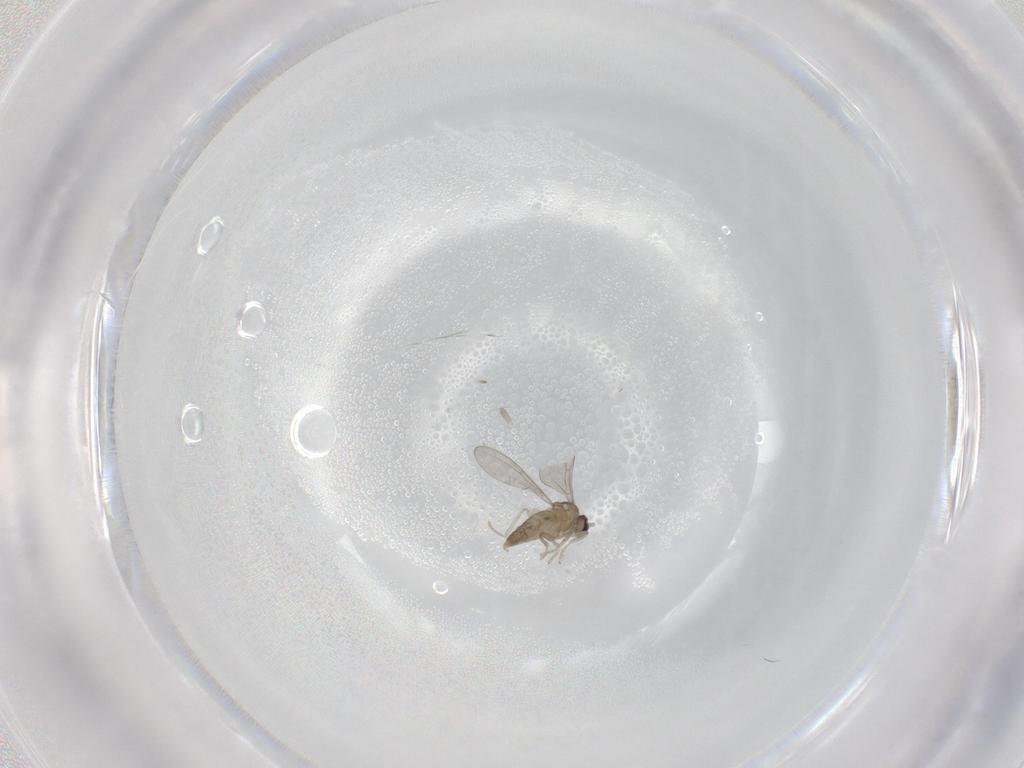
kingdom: Animalia
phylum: Arthropoda
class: Insecta
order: Diptera
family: Cecidomyiidae
